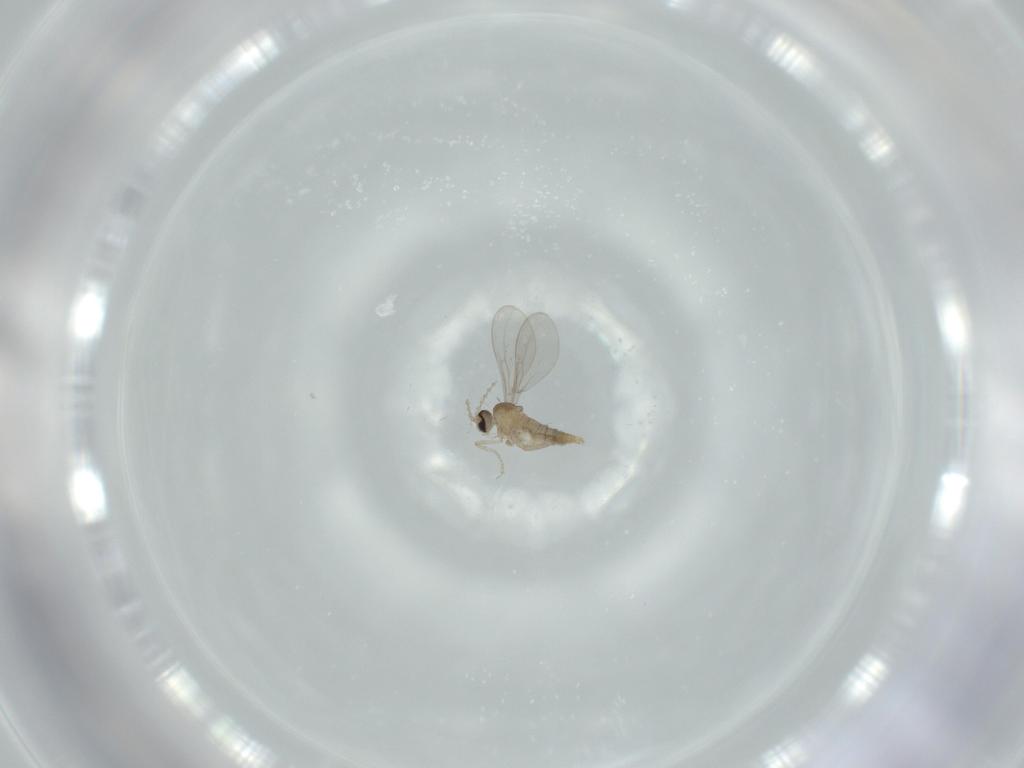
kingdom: Animalia
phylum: Arthropoda
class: Insecta
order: Diptera
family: Cecidomyiidae
